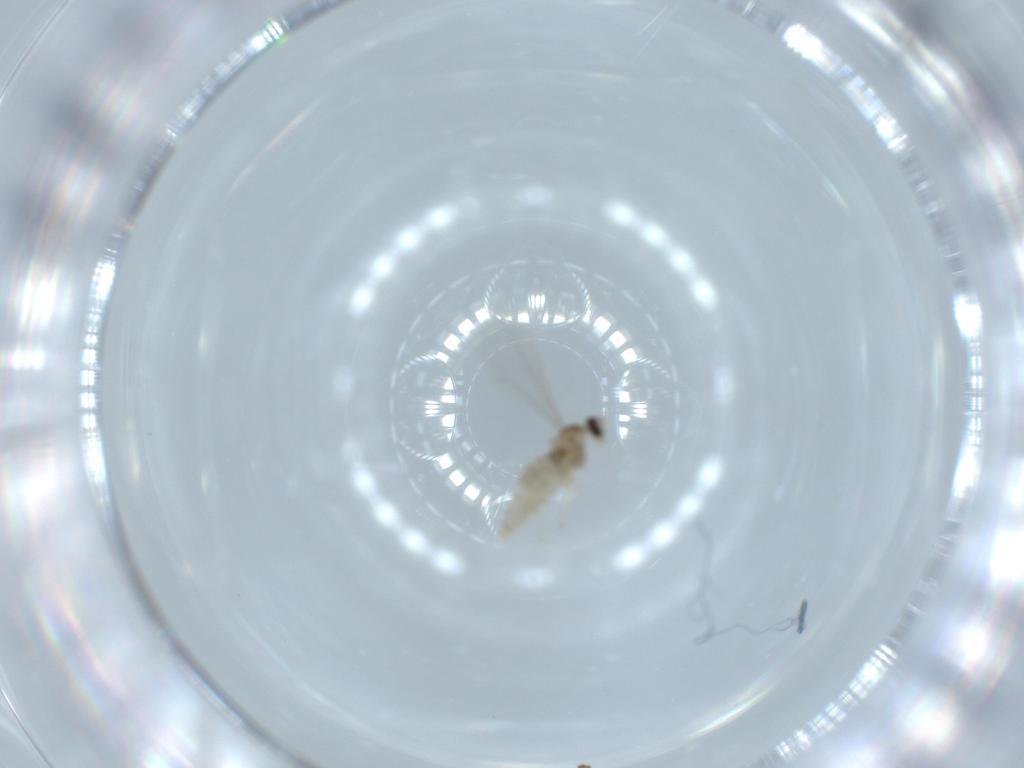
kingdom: Animalia
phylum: Arthropoda
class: Insecta
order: Diptera
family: Cecidomyiidae
